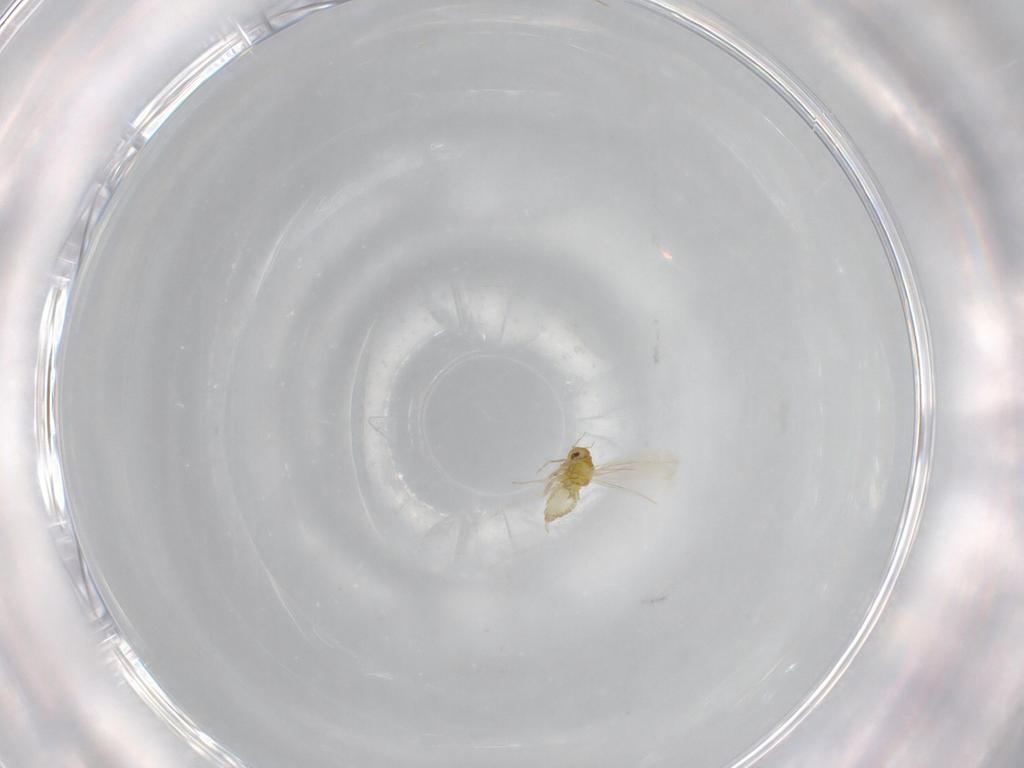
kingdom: Animalia
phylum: Arthropoda
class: Insecta
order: Hemiptera
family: Aleyrodidae
